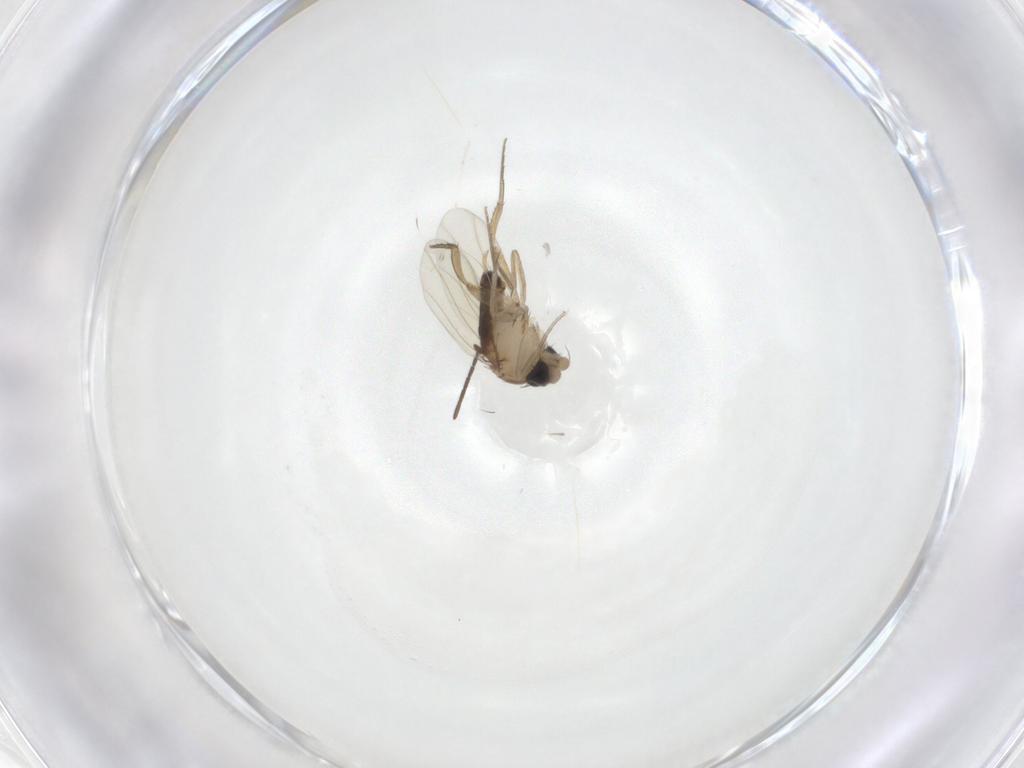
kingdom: Animalia
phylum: Arthropoda
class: Insecta
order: Diptera
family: Phoridae
